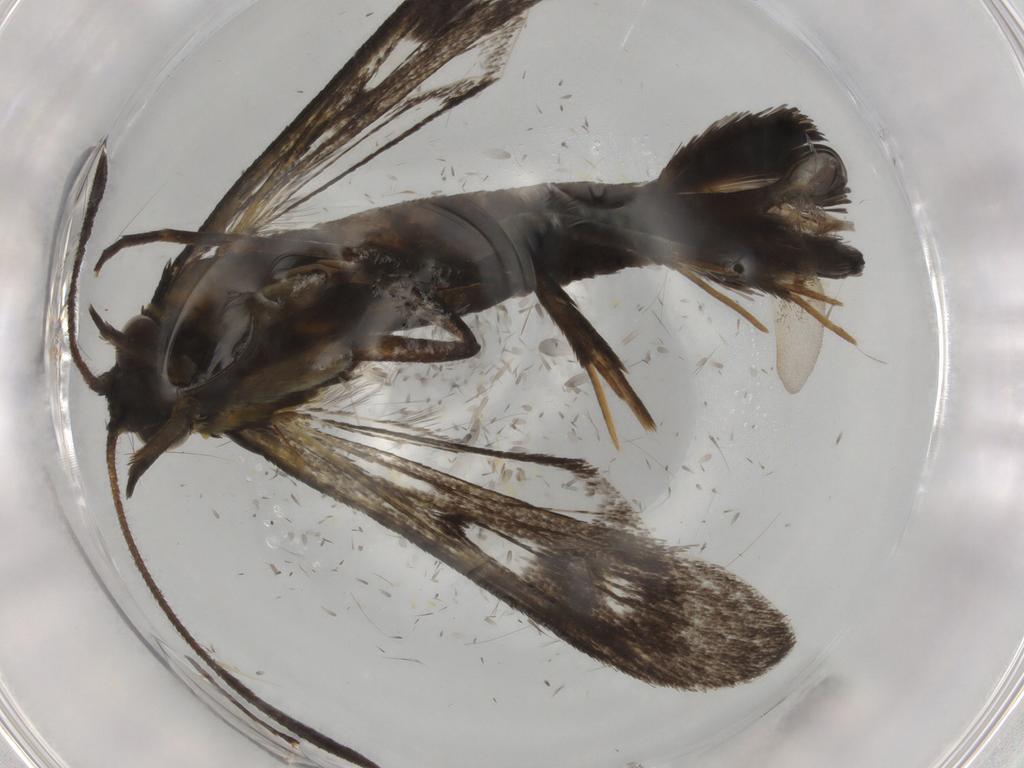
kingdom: Animalia
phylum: Arthropoda
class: Insecta
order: Lepidoptera
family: Sesiidae
